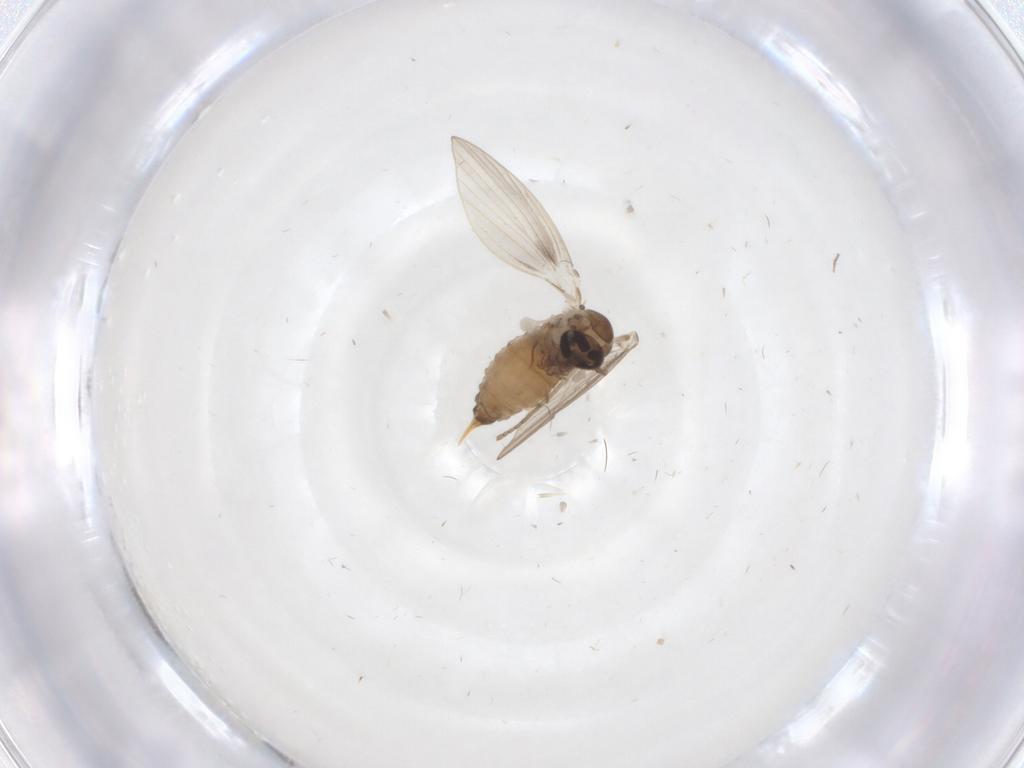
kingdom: Animalia
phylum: Arthropoda
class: Insecta
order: Diptera
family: Psychodidae
